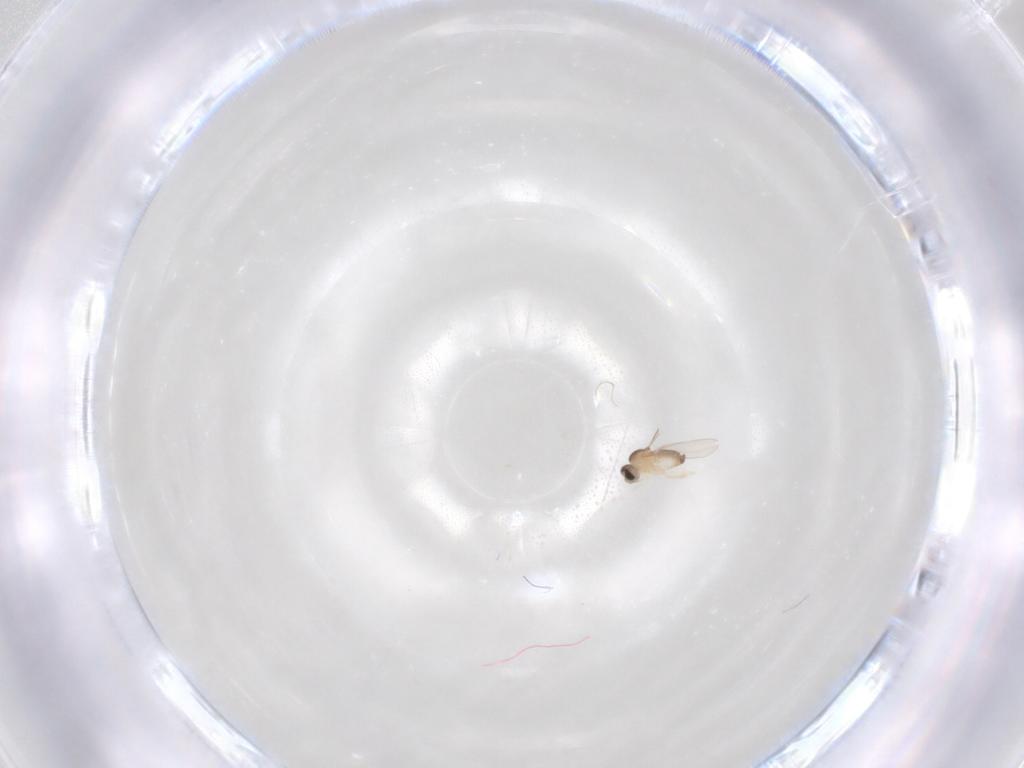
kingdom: Animalia
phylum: Arthropoda
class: Insecta
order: Diptera
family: Cecidomyiidae
